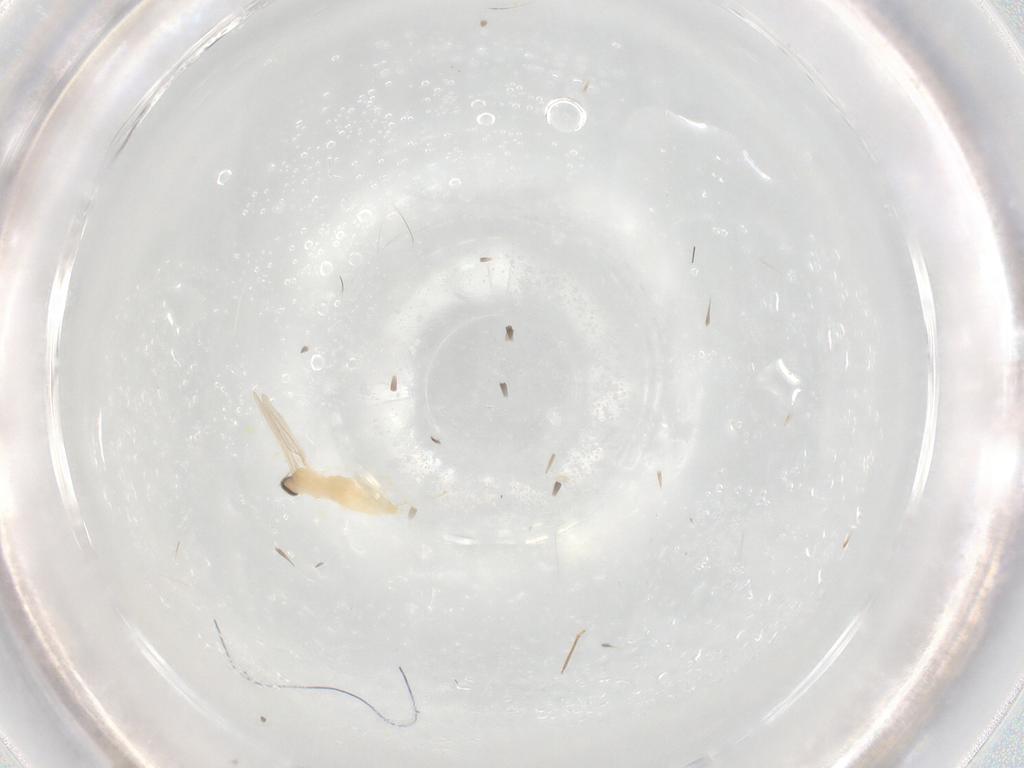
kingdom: Animalia
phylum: Arthropoda
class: Insecta
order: Diptera
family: Cecidomyiidae
